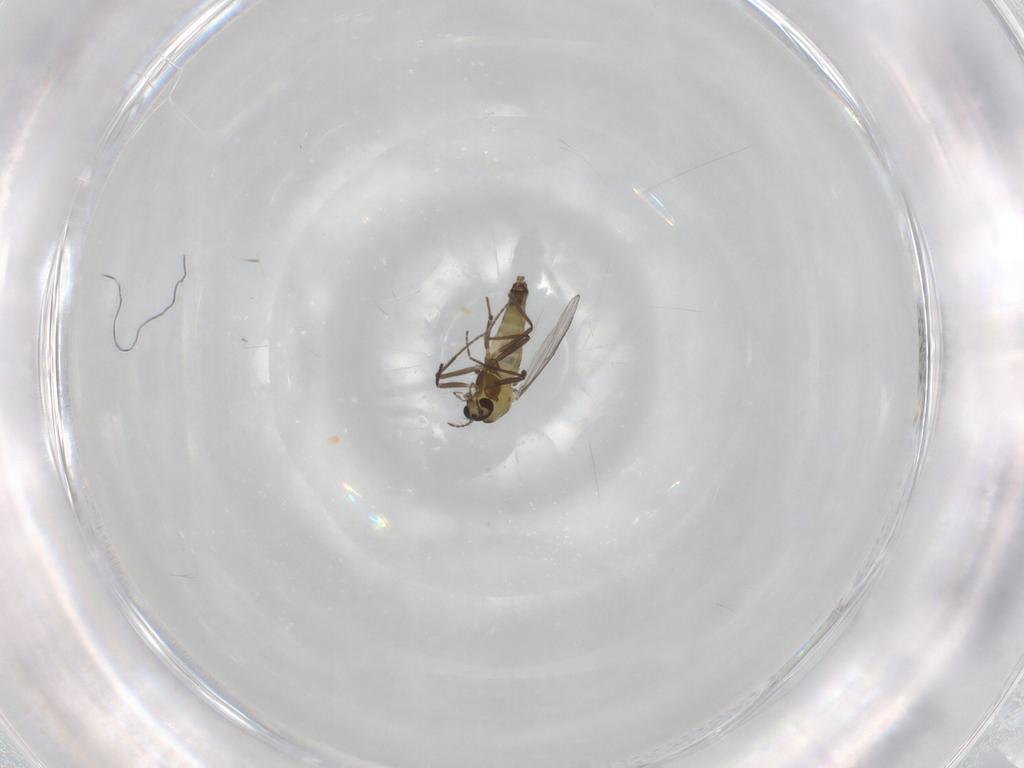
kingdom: Animalia
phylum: Arthropoda
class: Insecta
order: Diptera
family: Chironomidae
